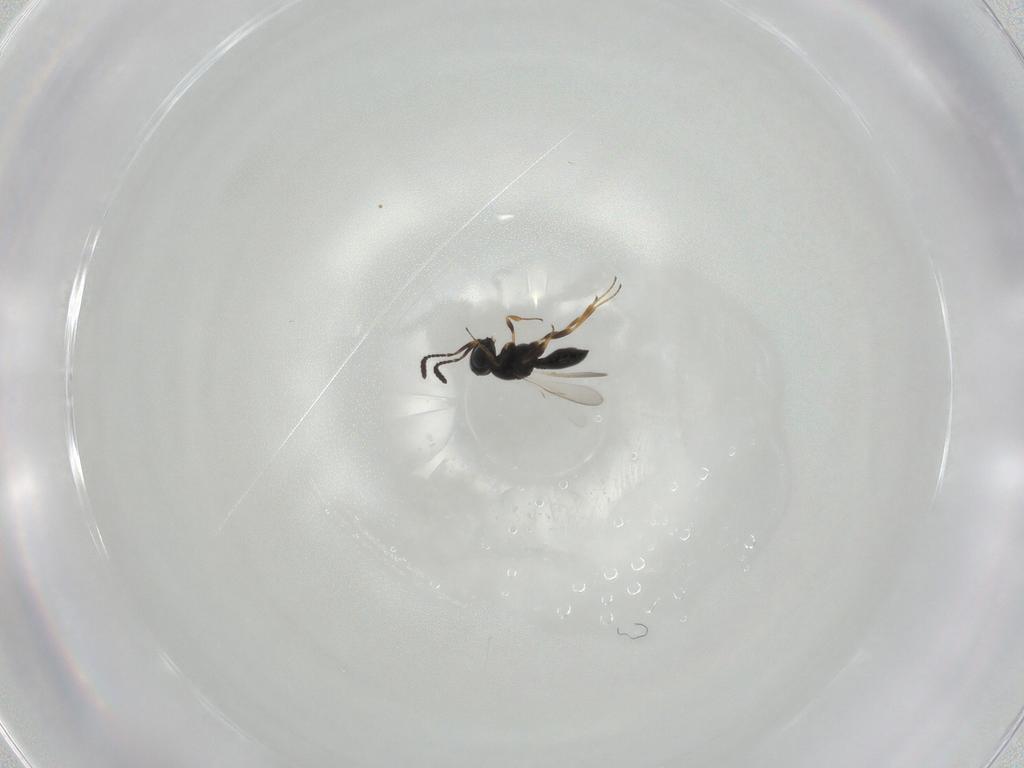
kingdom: Animalia
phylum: Arthropoda
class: Insecta
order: Hymenoptera
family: Scelionidae
